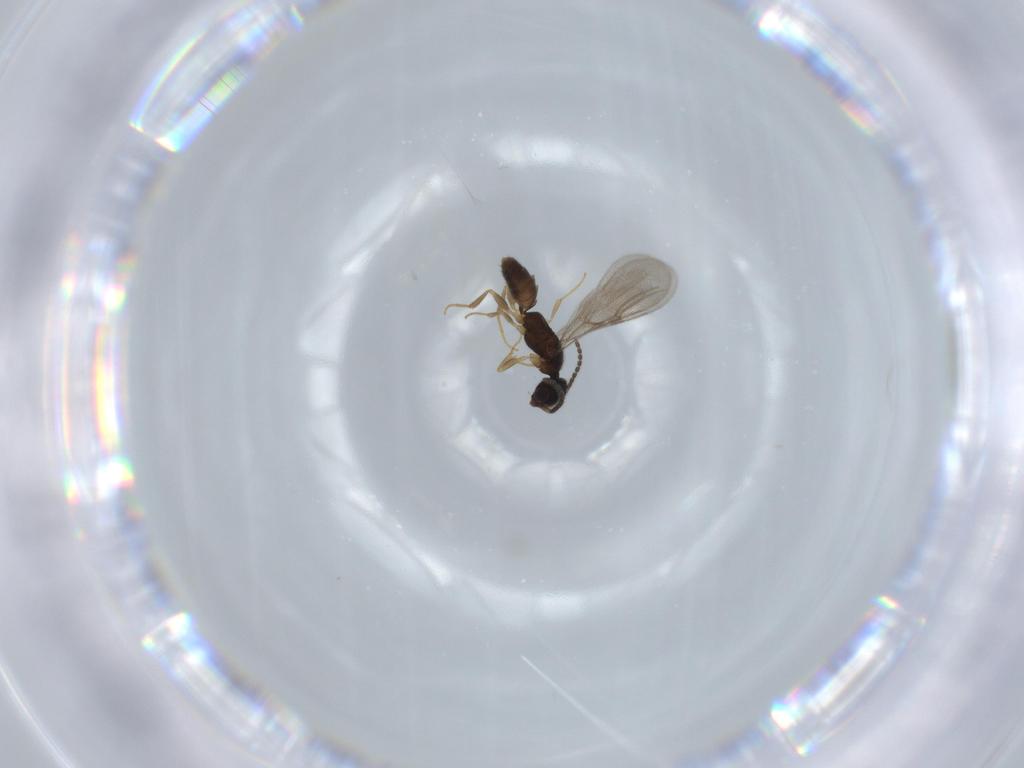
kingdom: Animalia
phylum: Arthropoda
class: Insecta
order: Hymenoptera
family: Bethylidae
